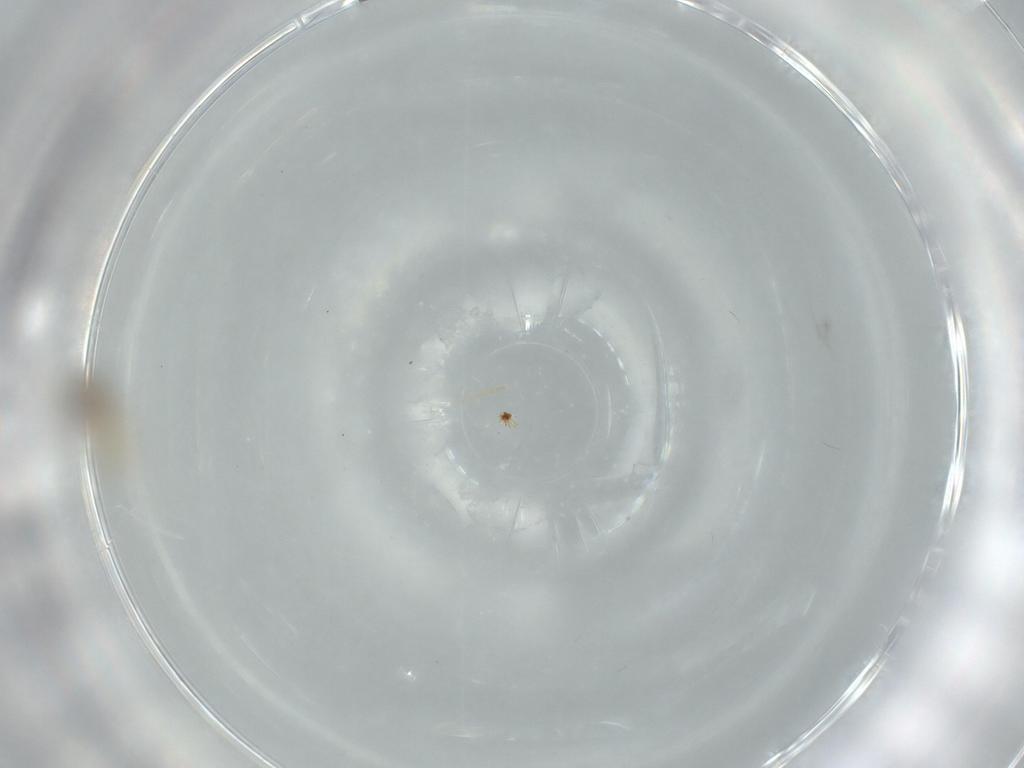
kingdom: Animalia
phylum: Arthropoda
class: Insecta
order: Diptera
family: Cecidomyiidae
